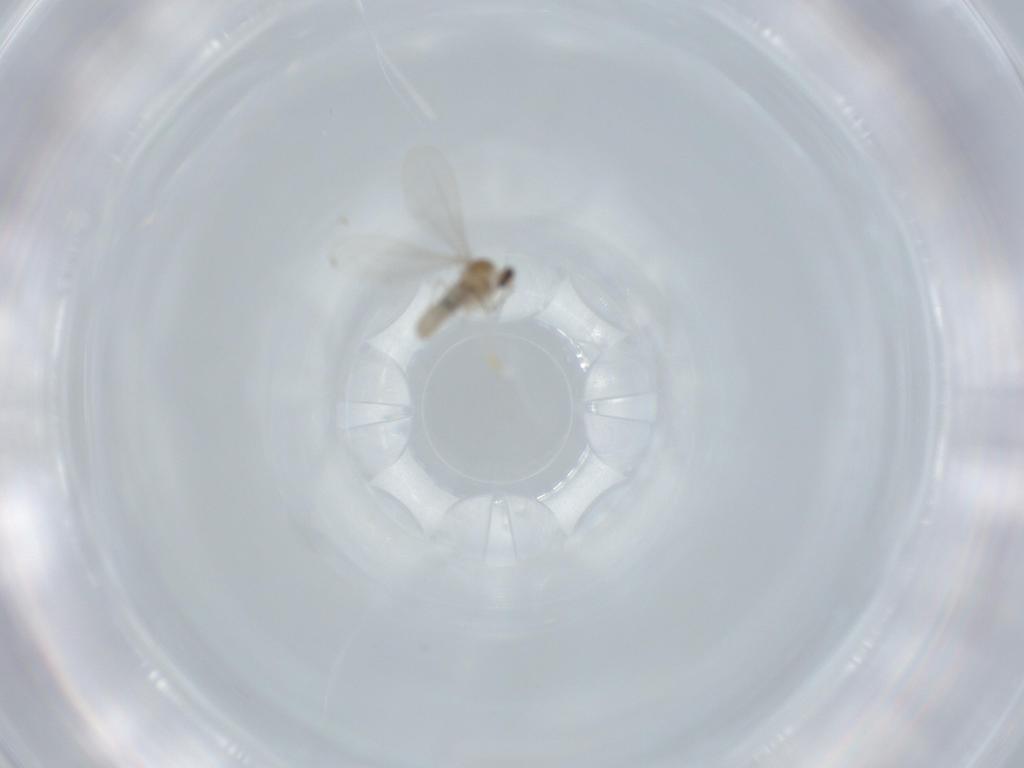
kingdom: Animalia
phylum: Arthropoda
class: Insecta
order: Diptera
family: Cecidomyiidae
